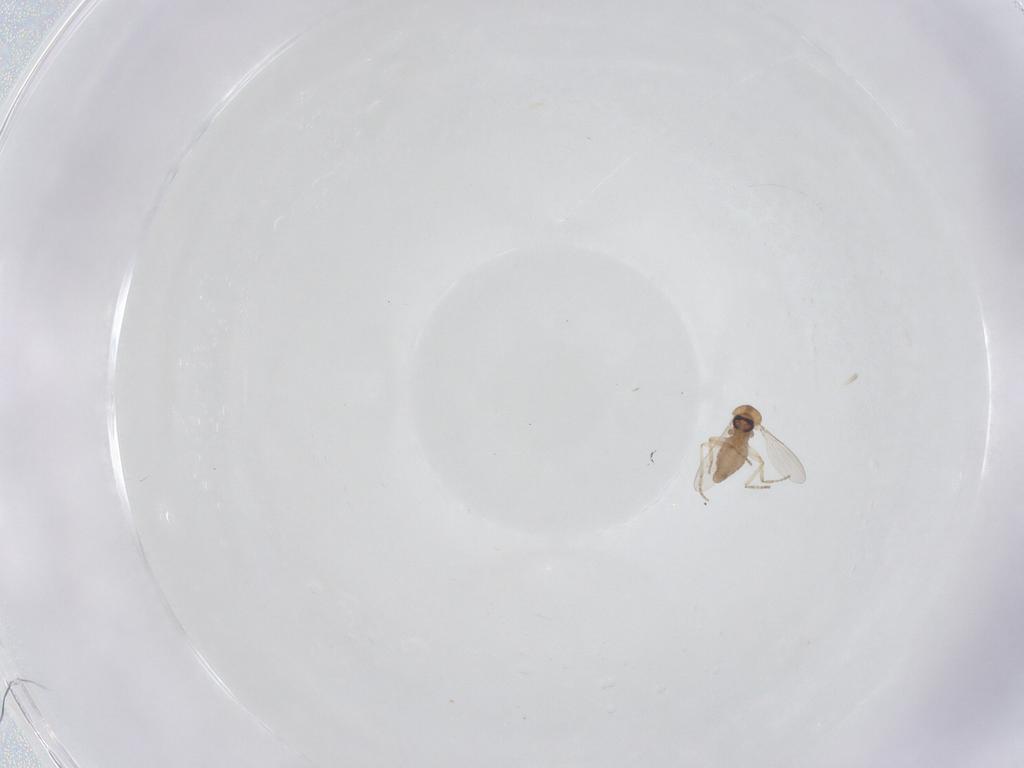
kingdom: Animalia
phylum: Arthropoda
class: Insecta
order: Diptera
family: Ceratopogonidae
